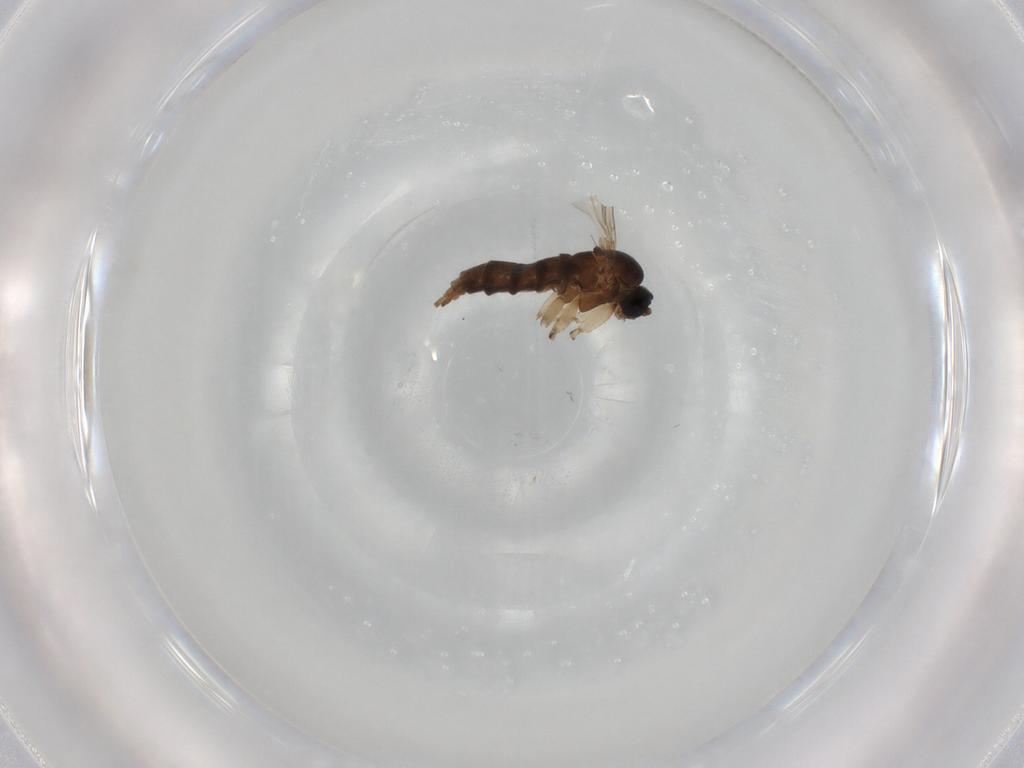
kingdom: Animalia
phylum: Arthropoda
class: Insecta
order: Diptera
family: Sciaridae
